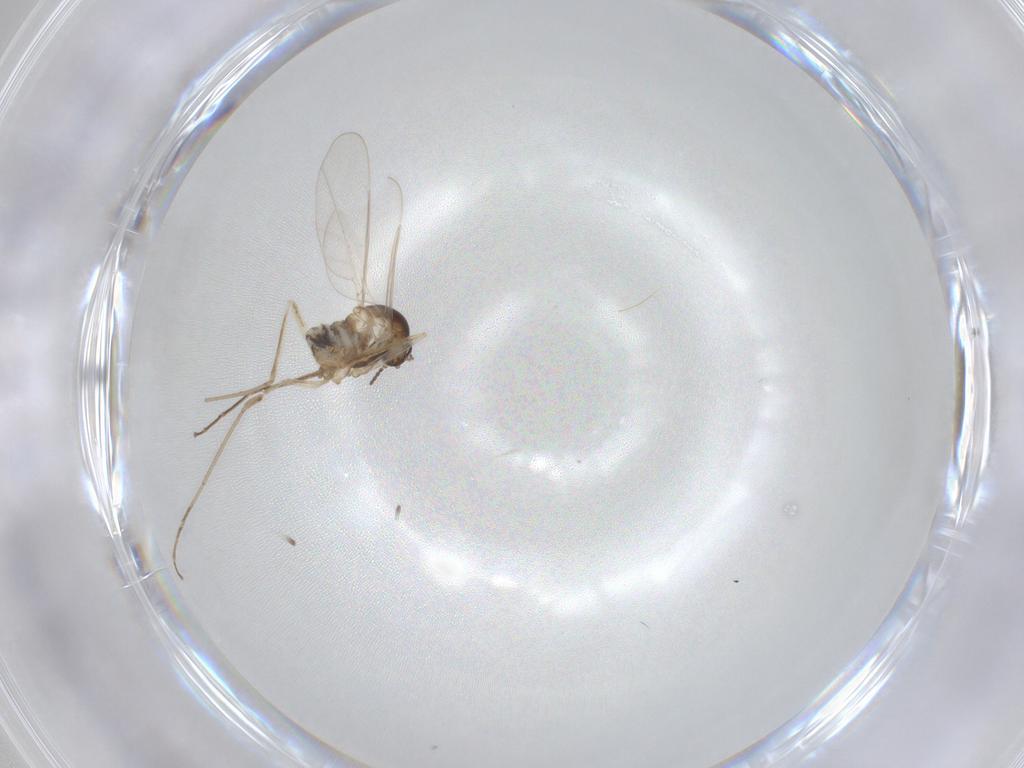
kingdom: Animalia
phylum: Arthropoda
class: Insecta
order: Diptera
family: Cecidomyiidae
